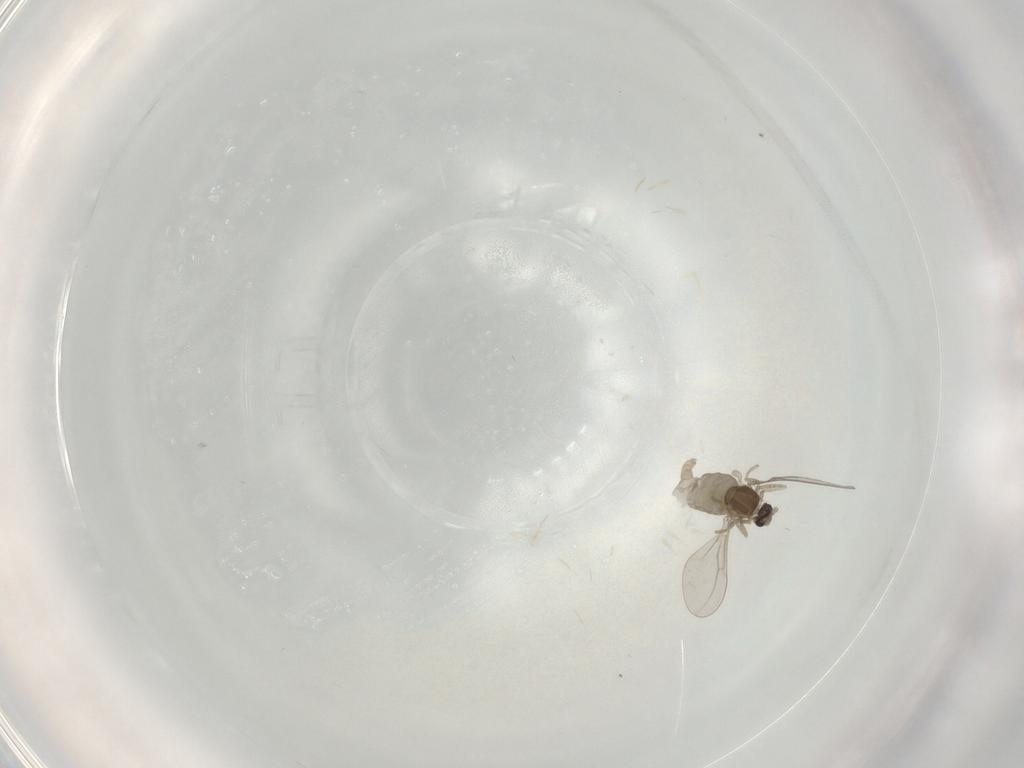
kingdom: Animalia
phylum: Arthropoda
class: Insecta
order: Diptera
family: Cecidomyiidae
